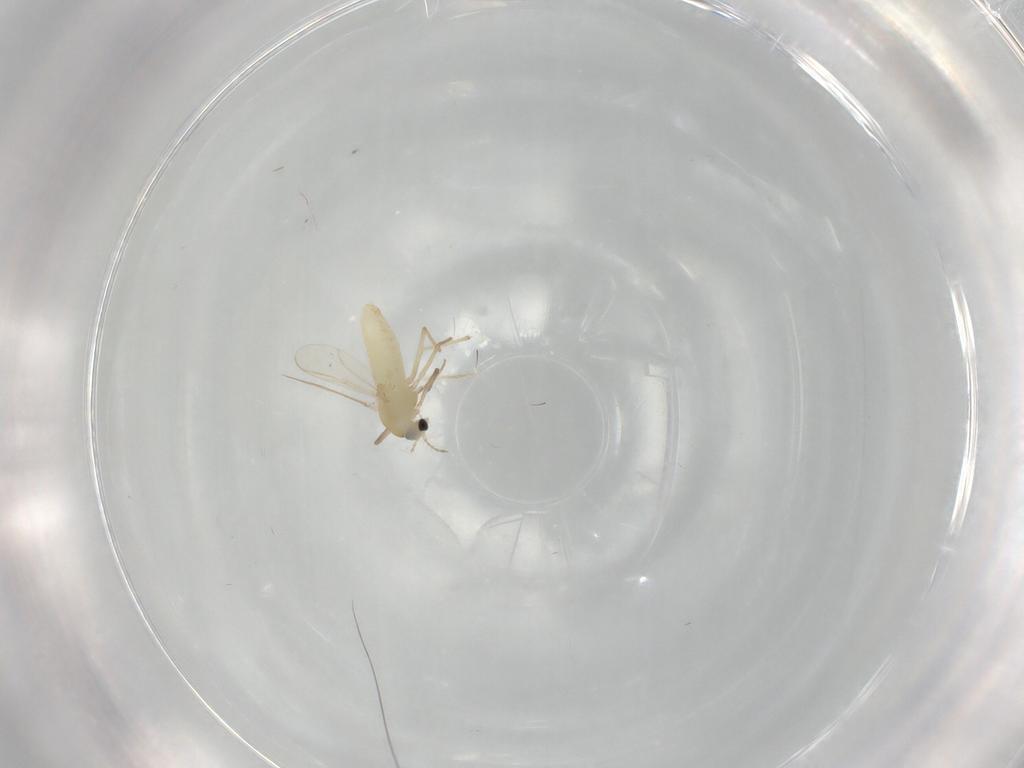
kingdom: Animalia
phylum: Arthropoda
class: Insecta
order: Diptera
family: Chironomidae
